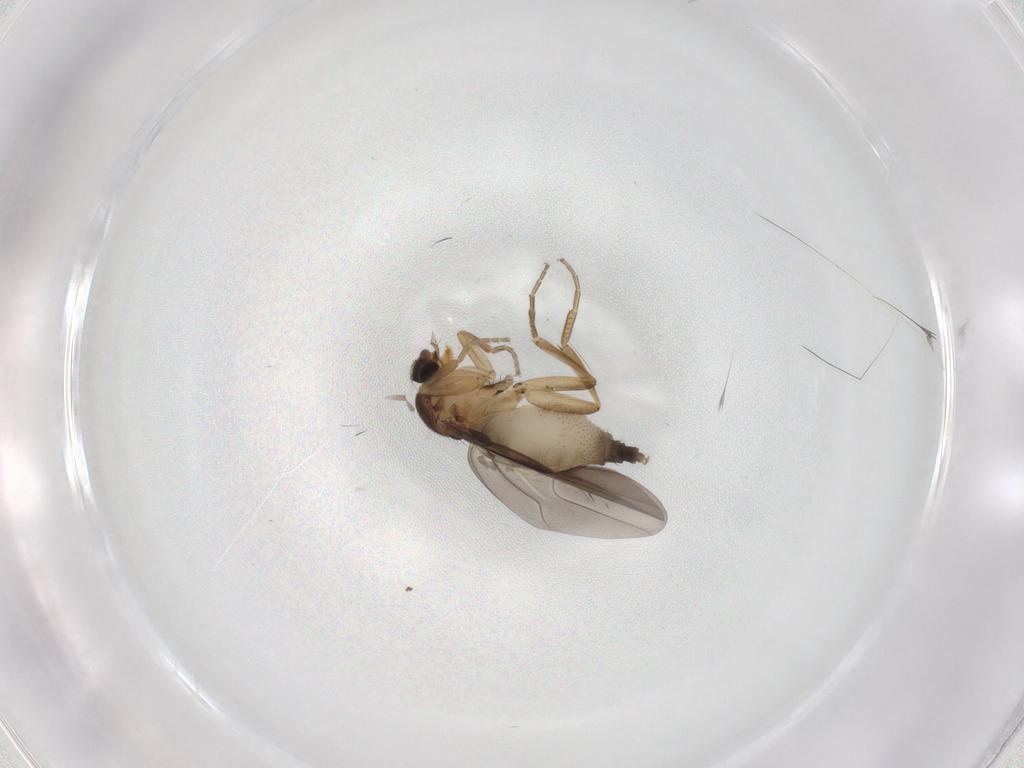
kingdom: Animalia
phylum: Arthropoda
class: Insecta
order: Diptera
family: Phoridae
